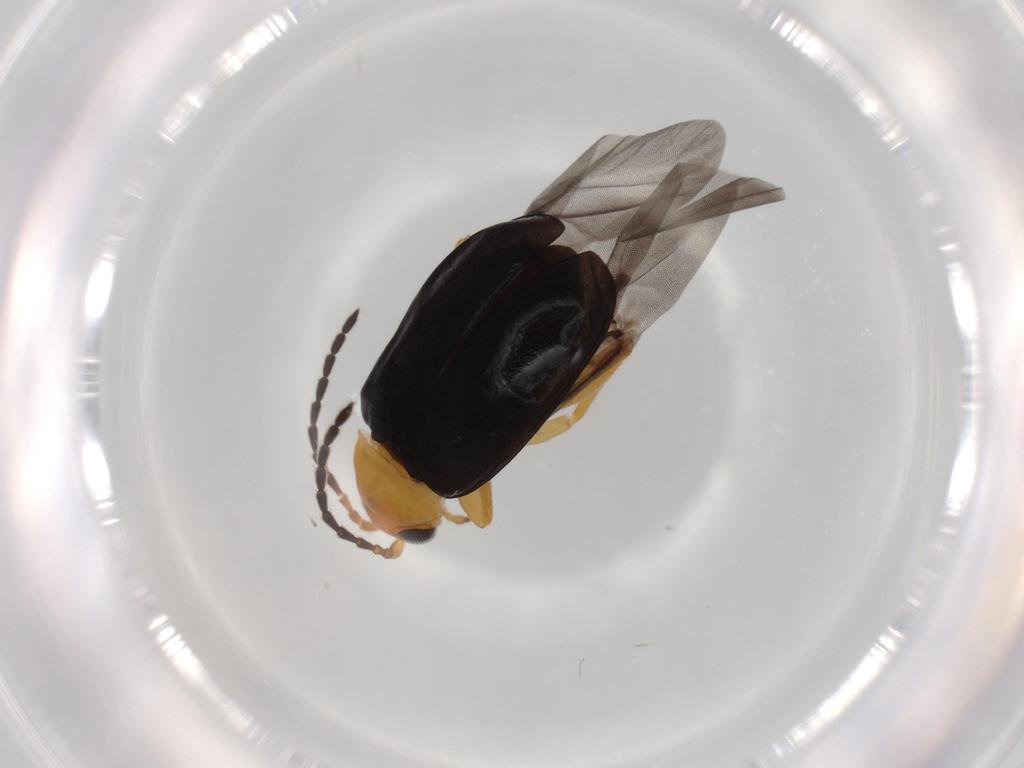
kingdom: Animalia
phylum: Arthropoda
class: Insecta
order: Coleoptera
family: Chrysomelidae
